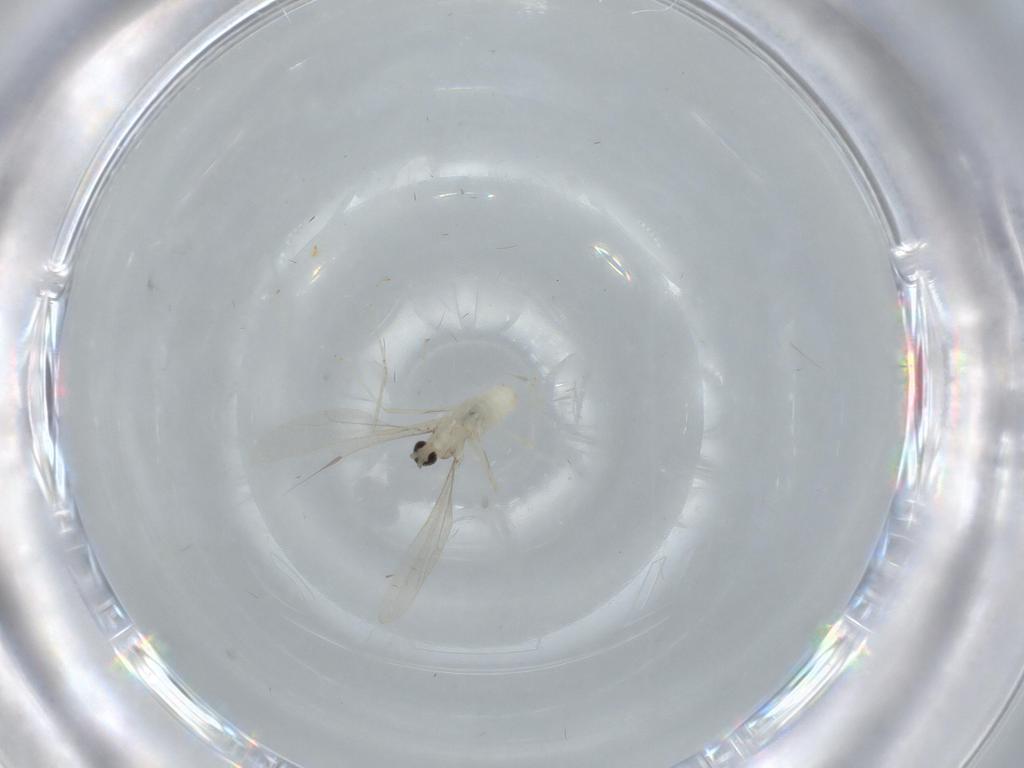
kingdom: Animalia
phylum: Arthropoda
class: Insecta
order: Diptera
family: Cecidomyiidae
